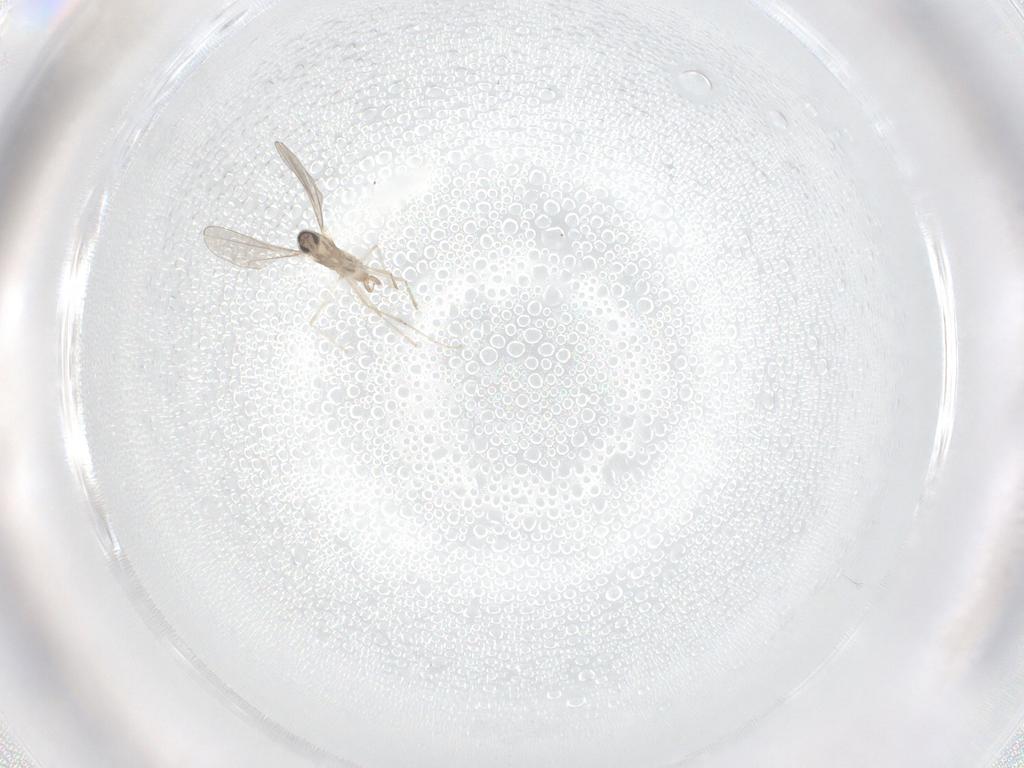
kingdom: Animalia
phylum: Arthropoda
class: Insecta
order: Diptera
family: Cecidomyiidae
